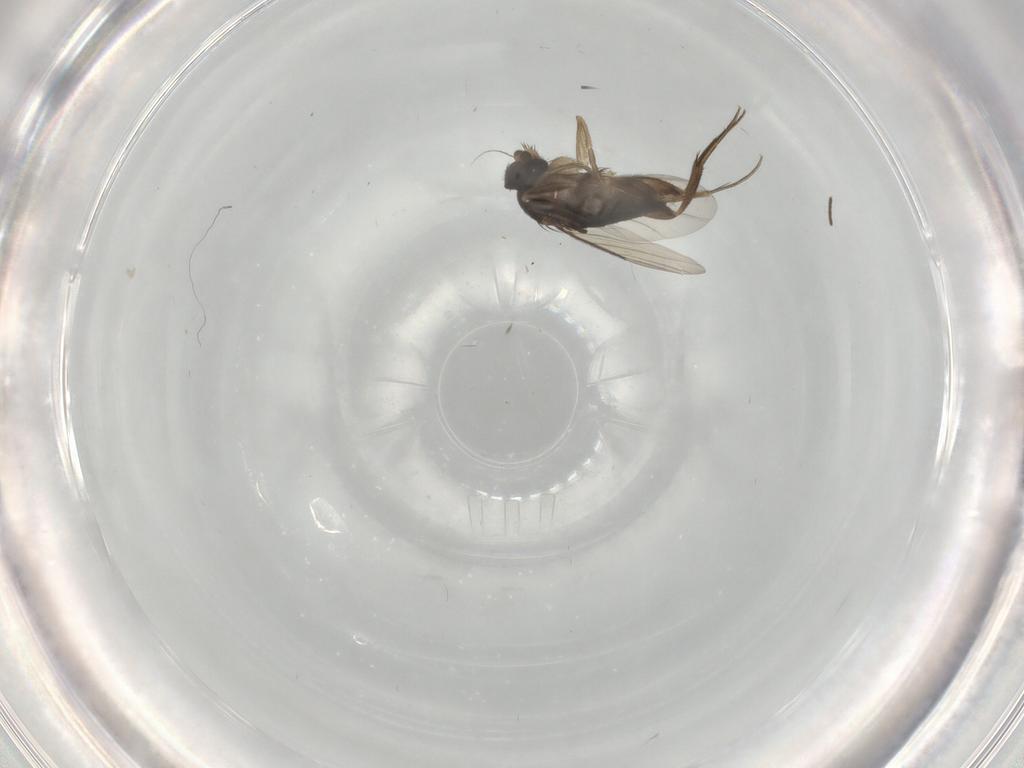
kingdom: Animalia
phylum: Arthropoda
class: Insecta
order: Diptera
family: Phoridae
